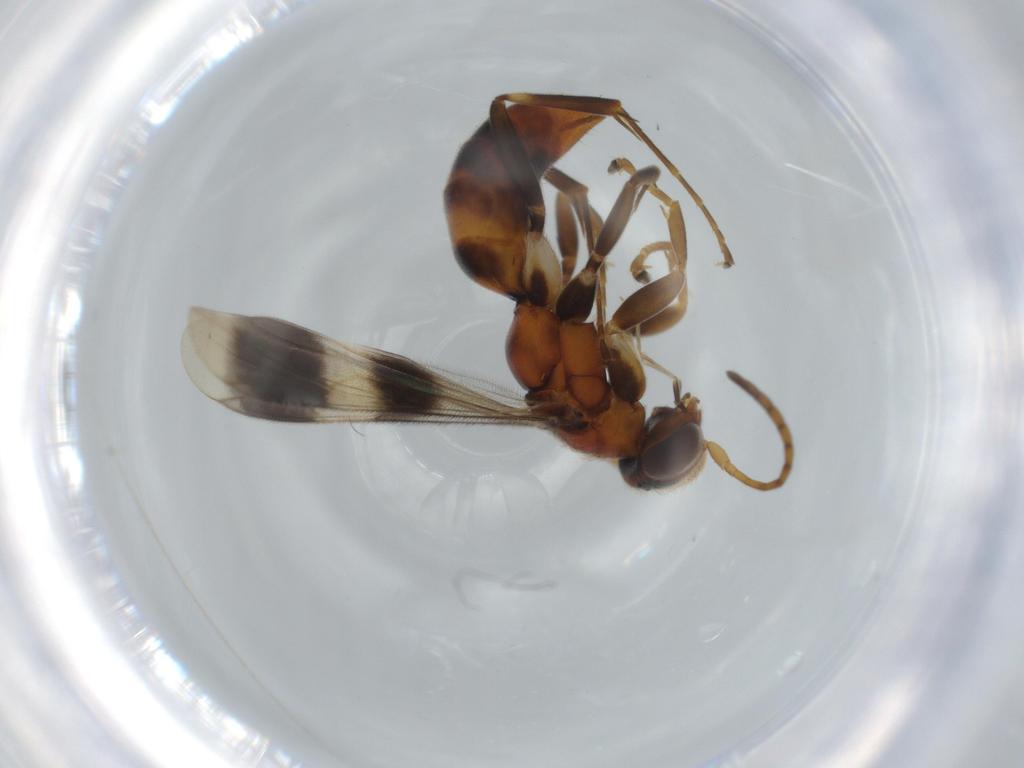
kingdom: Animalia
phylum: Arthropoda
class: Insecta
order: Hymenoptera
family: Pompilidae
